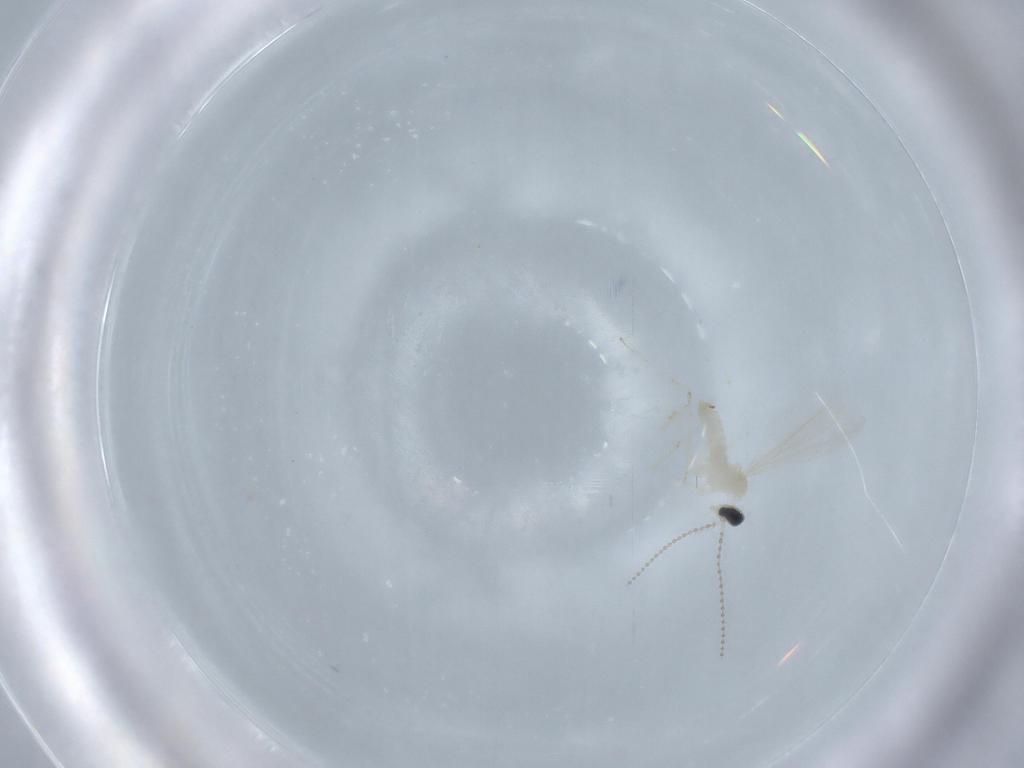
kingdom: Animalia
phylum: Arthropoda
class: Insecta
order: Diptera
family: Cecidomyiidae
